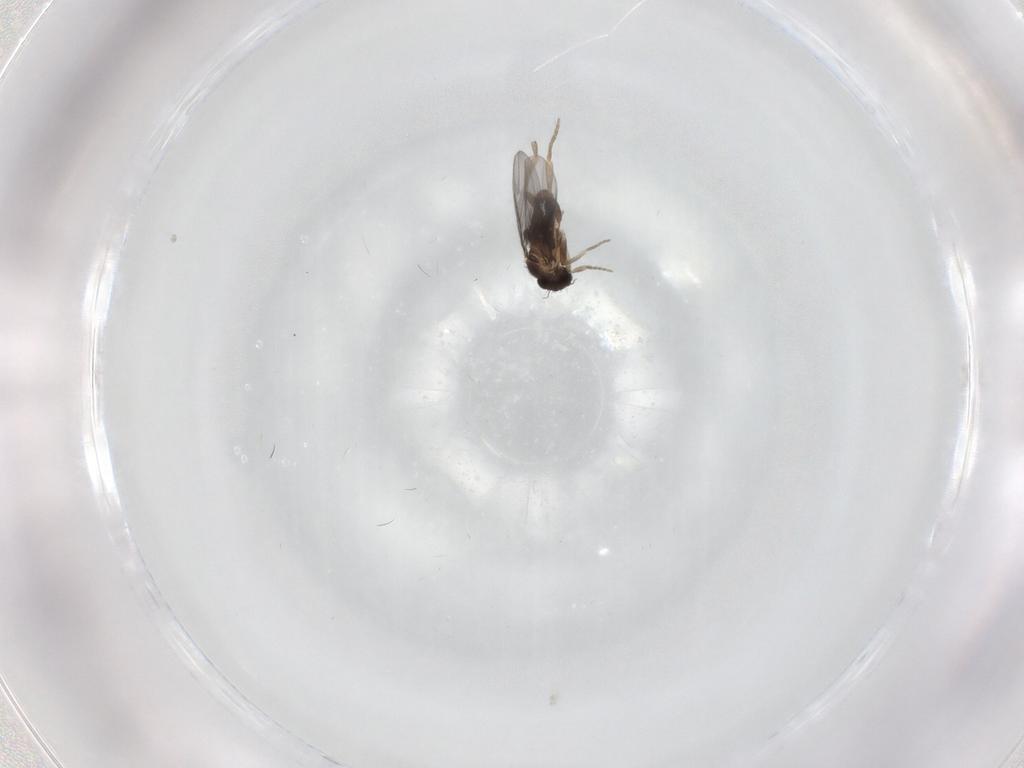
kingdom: Animalia
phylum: Arthropoda
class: Insecta
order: Diptera
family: Chironomidae
